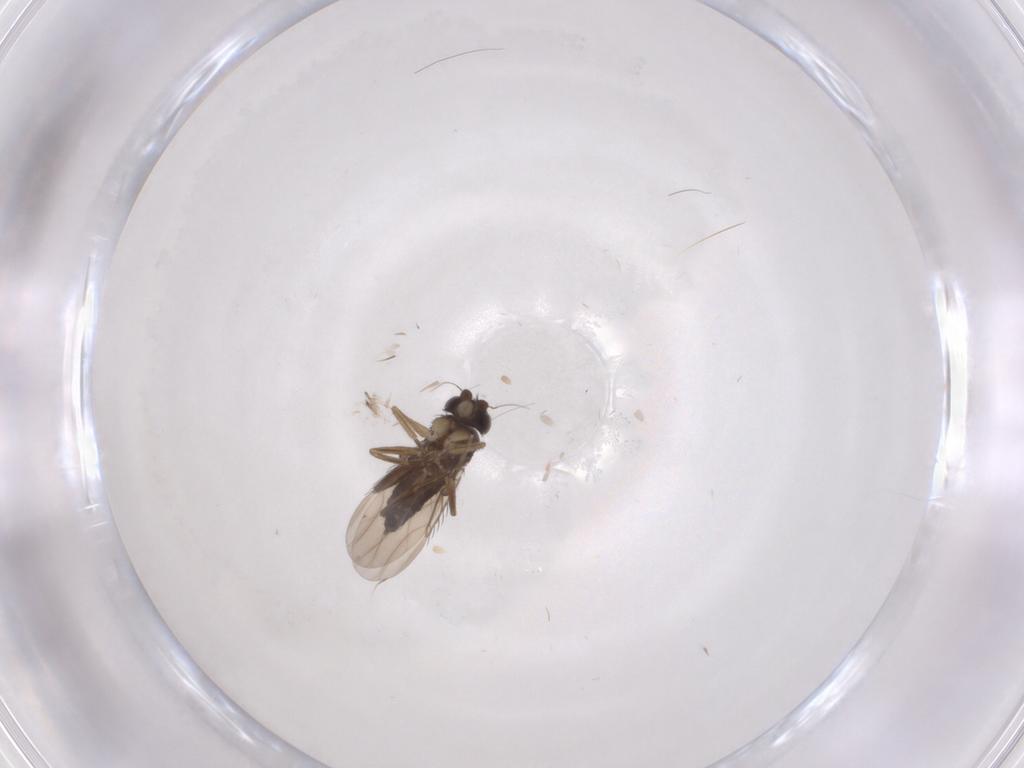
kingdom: Animalia
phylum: Arthropoda
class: Insecta
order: Diptera
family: Phoridae
